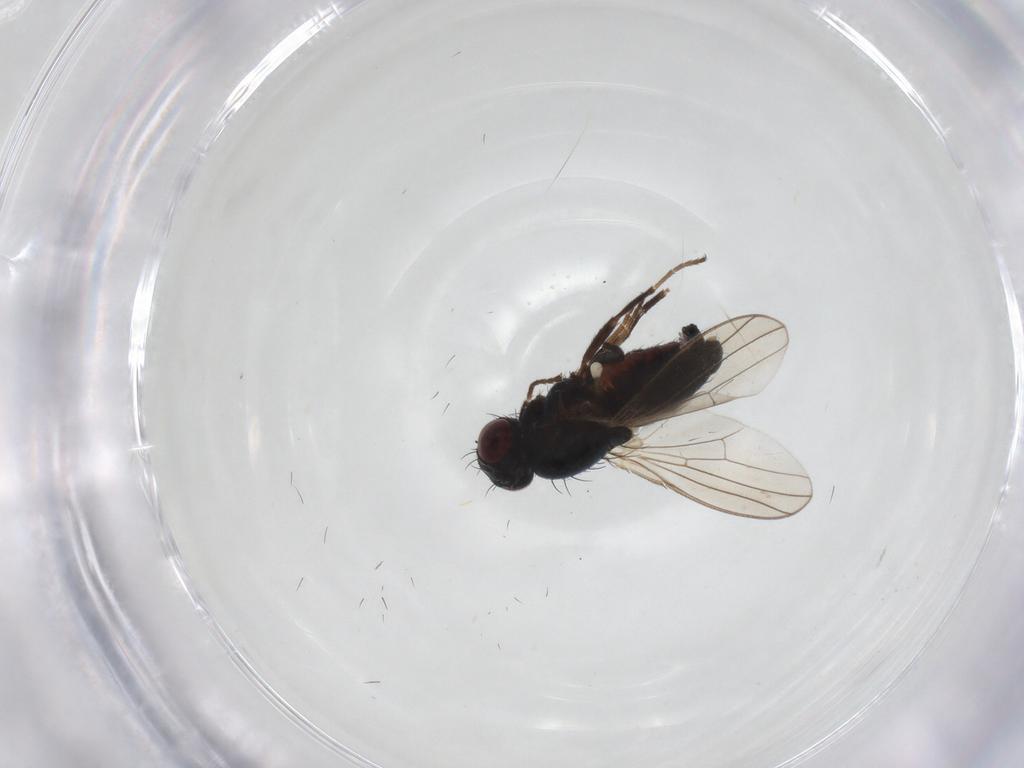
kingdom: Animalia
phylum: Arthropoda
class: Insecta
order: Diptera
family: Carnidae
